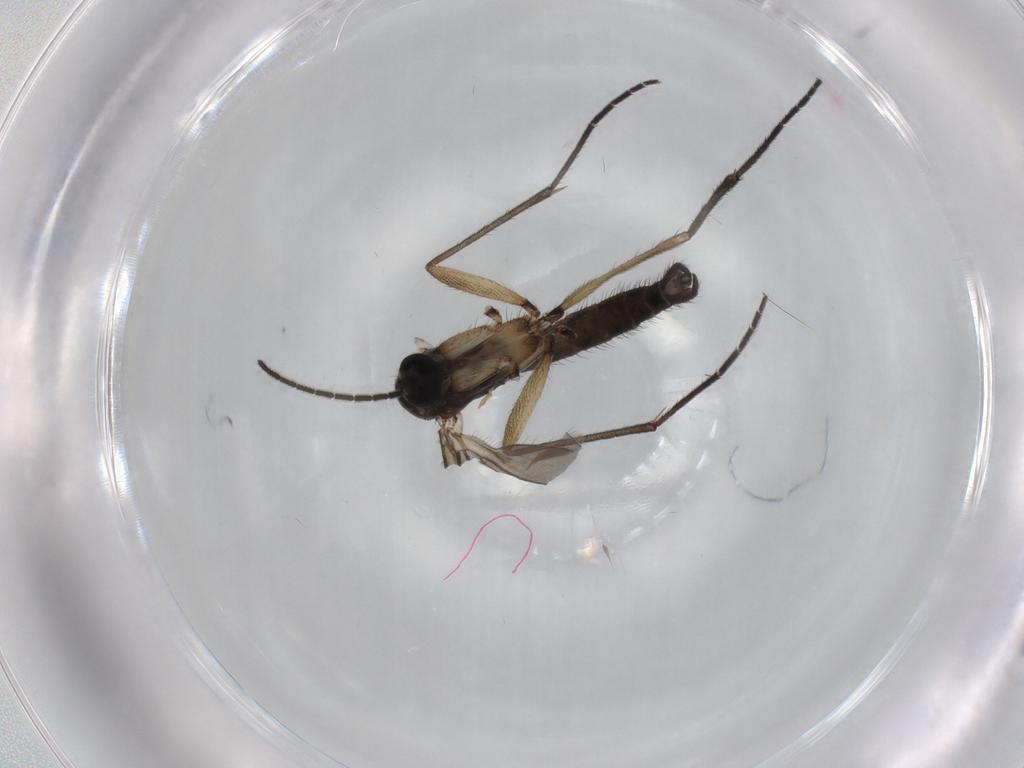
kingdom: Animalia
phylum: Arthropoda
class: Insecta
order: Diptera
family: Sciaridae
